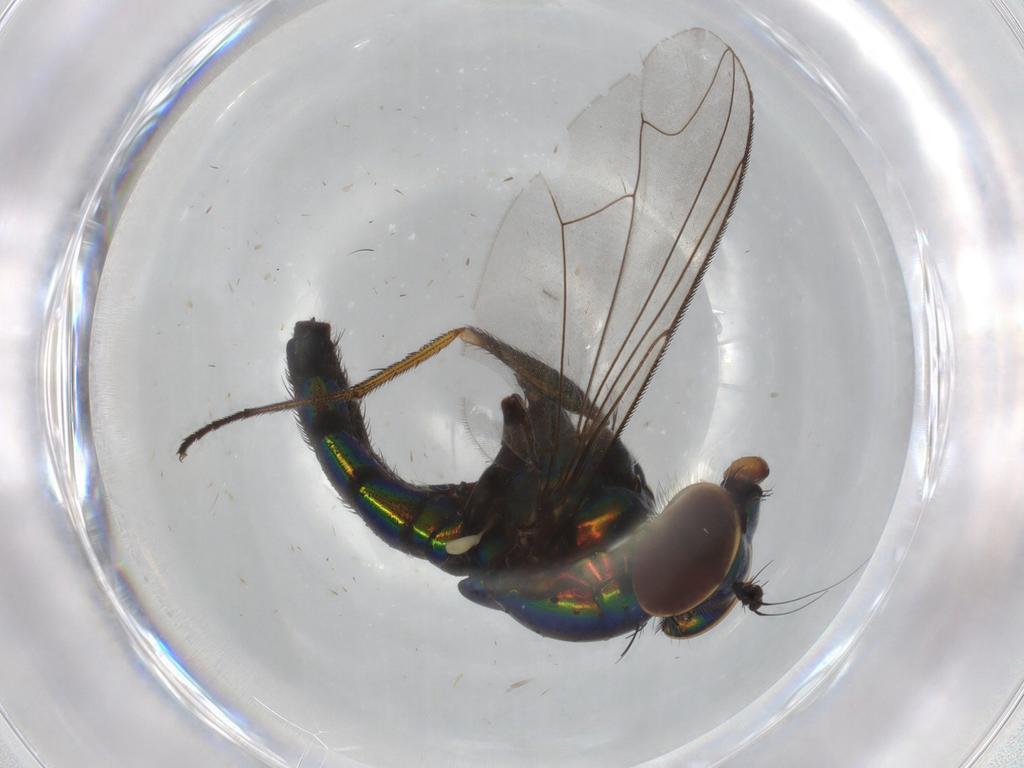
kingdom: Animalia
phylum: Arthropoda
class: Insecta
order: Diptera
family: Dolichopodidae
